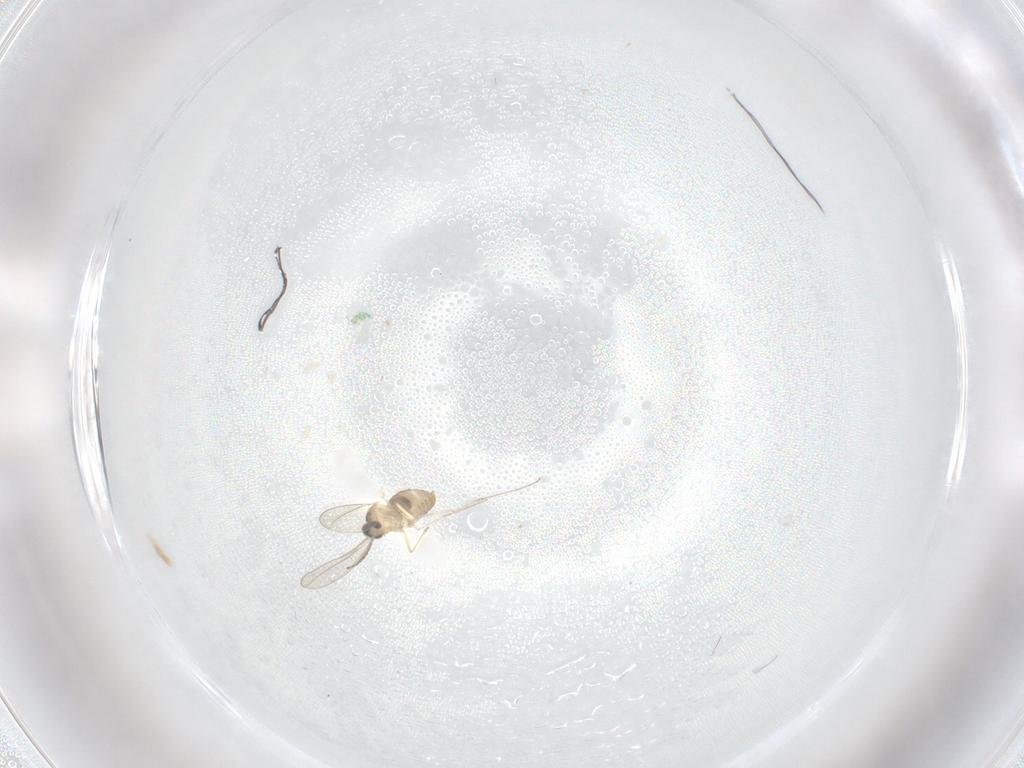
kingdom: Animalia
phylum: Arthropoda
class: Insecta
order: Diptera
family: Cecidomyiidae
